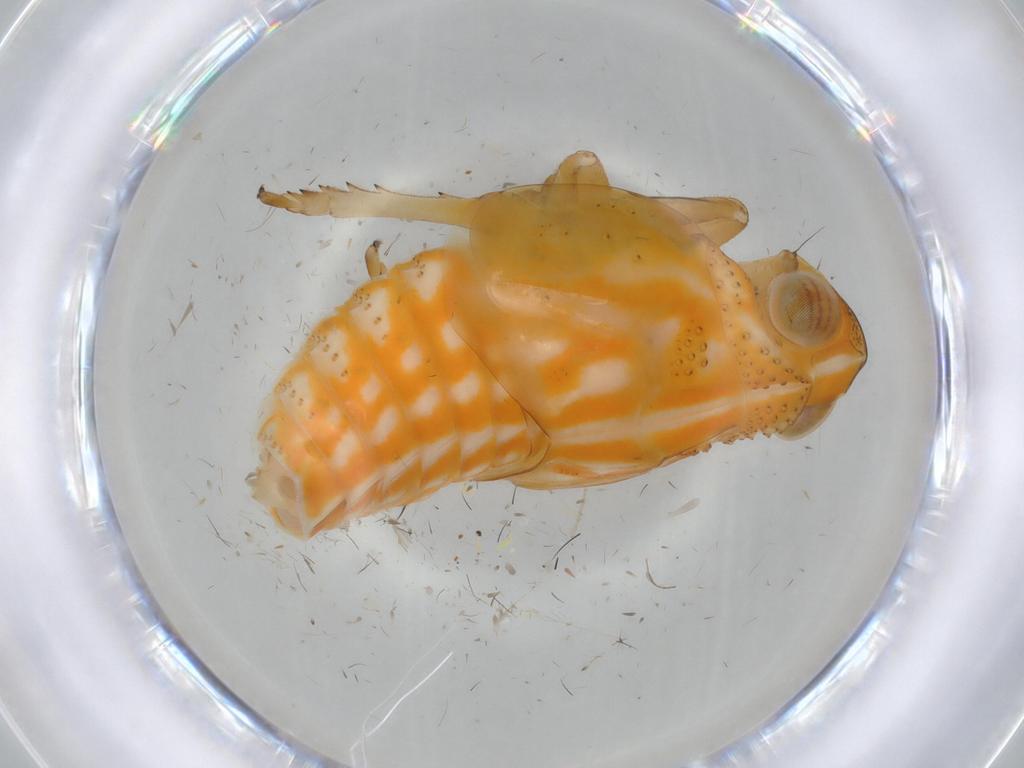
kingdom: Animalia
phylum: Arthropoda
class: Insecta
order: Hemiptera
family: Issidae
